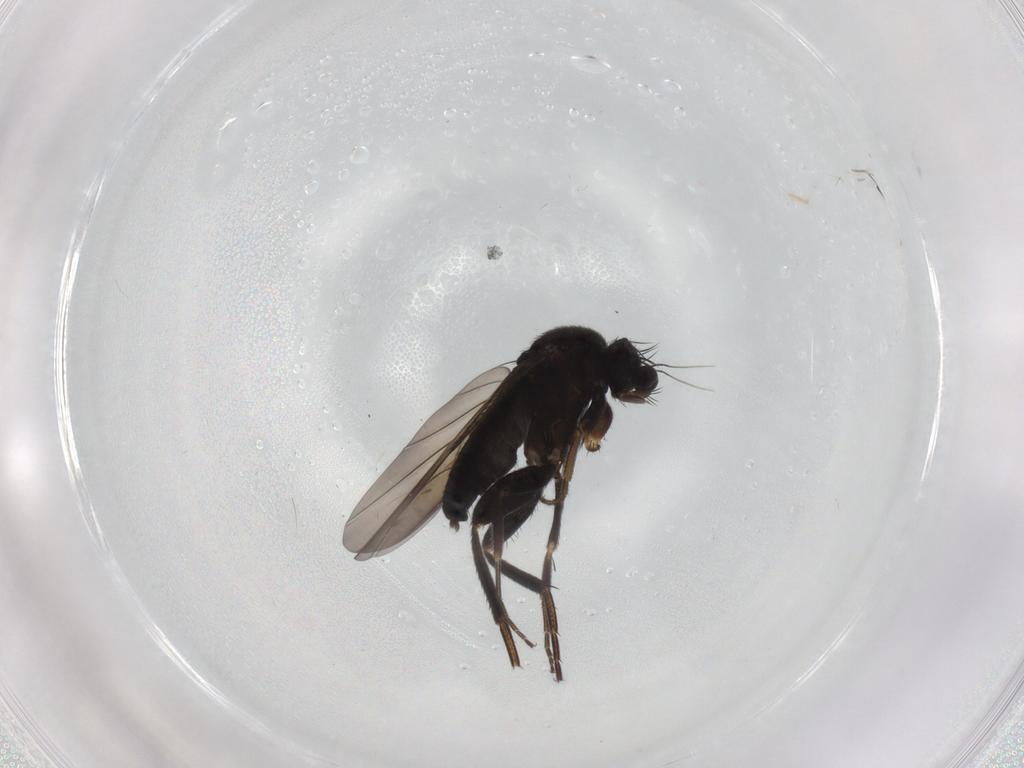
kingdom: Animalia
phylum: Arthropoda
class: Insecta
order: Diptera
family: Phoridae
